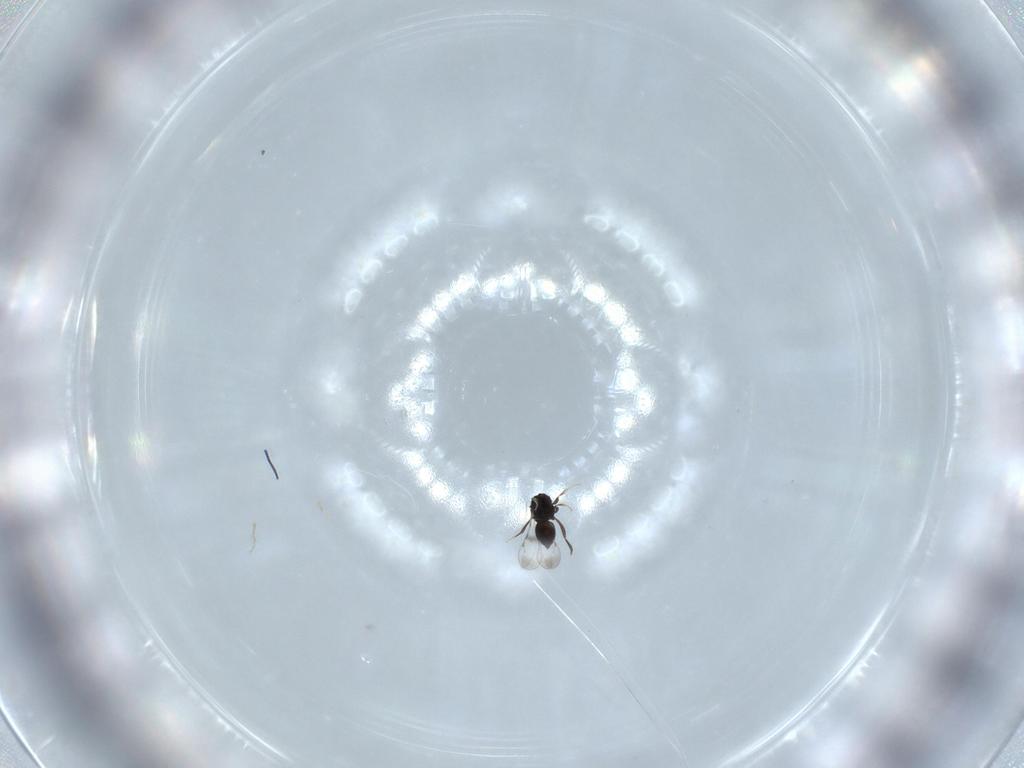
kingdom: Animalia
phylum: Arthropoda
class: Insecta
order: Hymenoptera
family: Ceraphronidae
